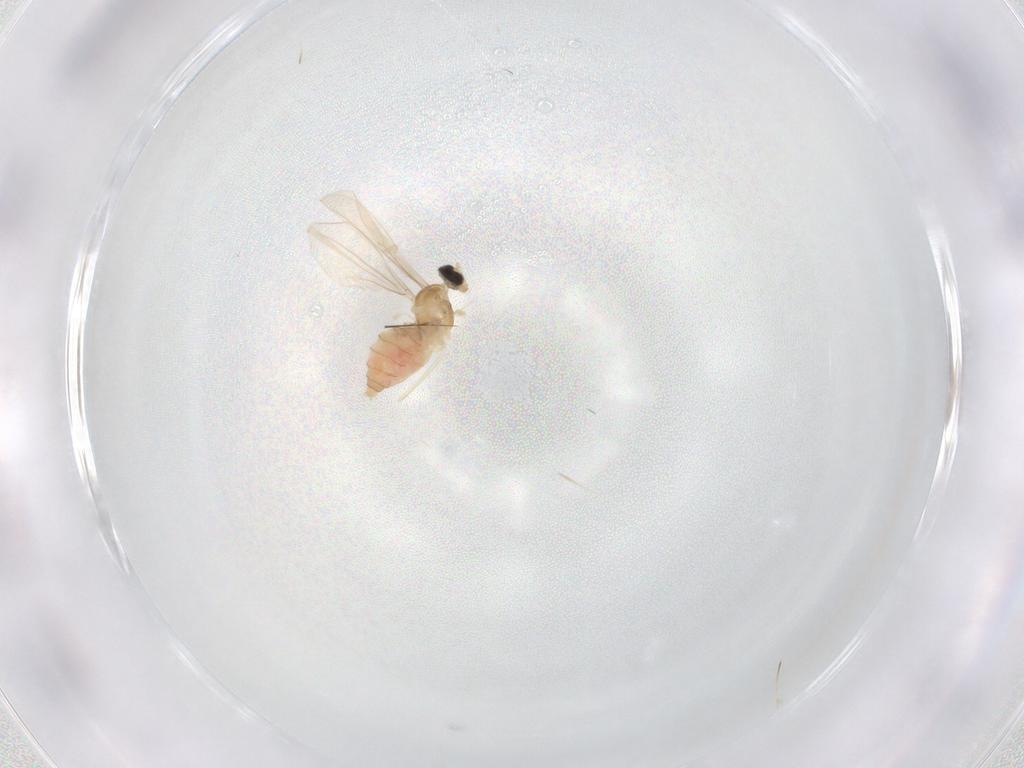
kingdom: Animalia
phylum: Arthropoda
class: Insecta
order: Diptera
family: Cecidomyiidae
